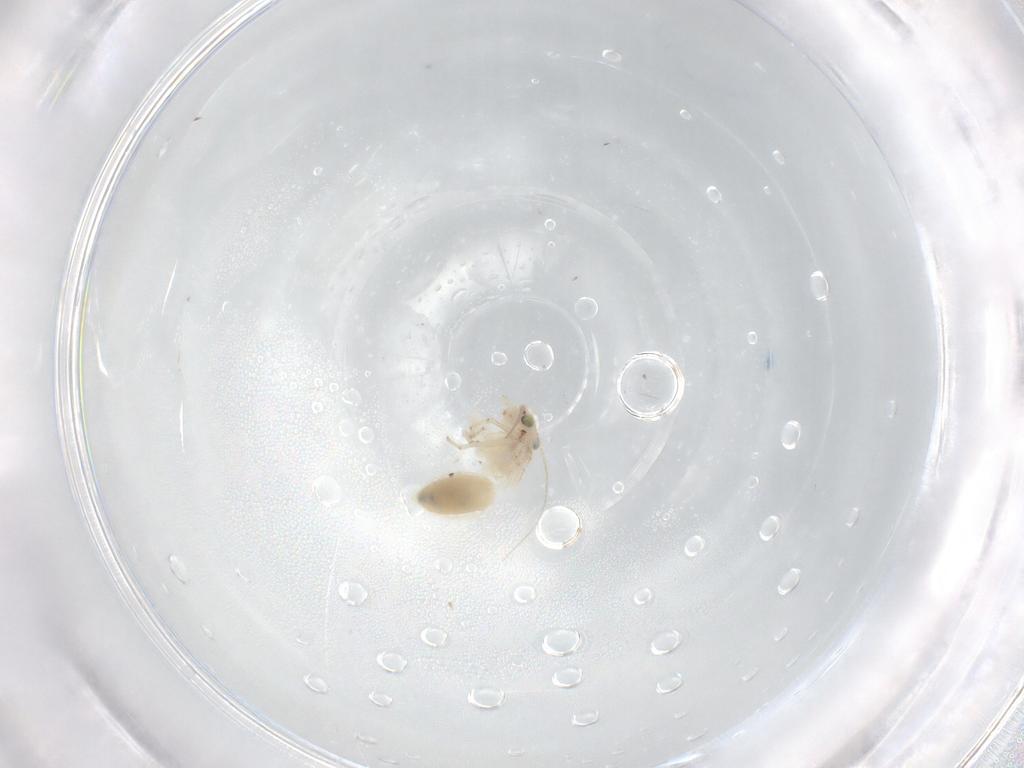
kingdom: Animalia
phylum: Arthropoda
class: Insecta
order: Psocodea
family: Lepidopsocidae
